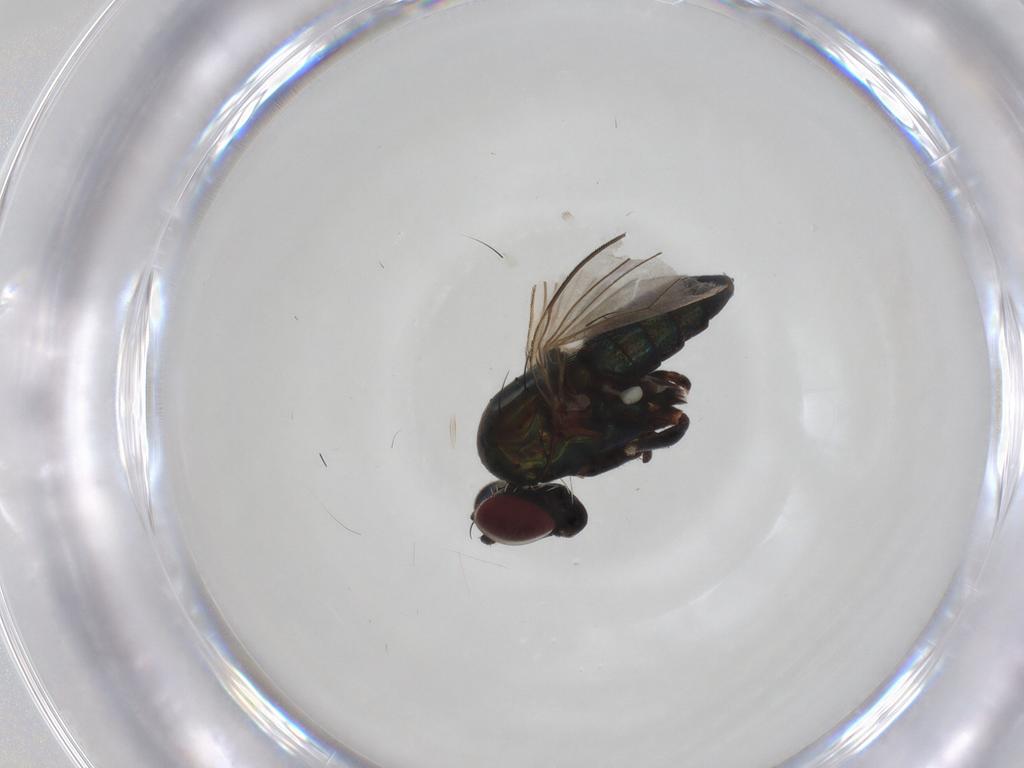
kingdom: Animalia
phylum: Arthropoda
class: Insecta
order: Diptera
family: Dolichopodidae
